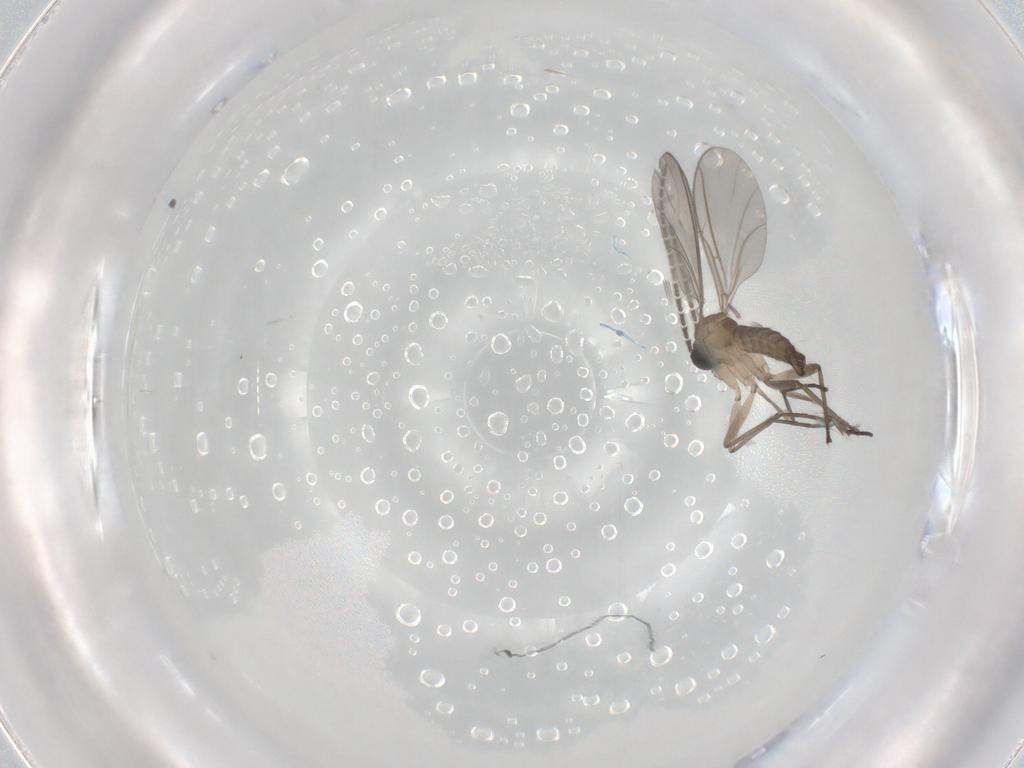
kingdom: Animalia
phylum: Arthropoda
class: Insecta
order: Diptera
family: Sciaridae
